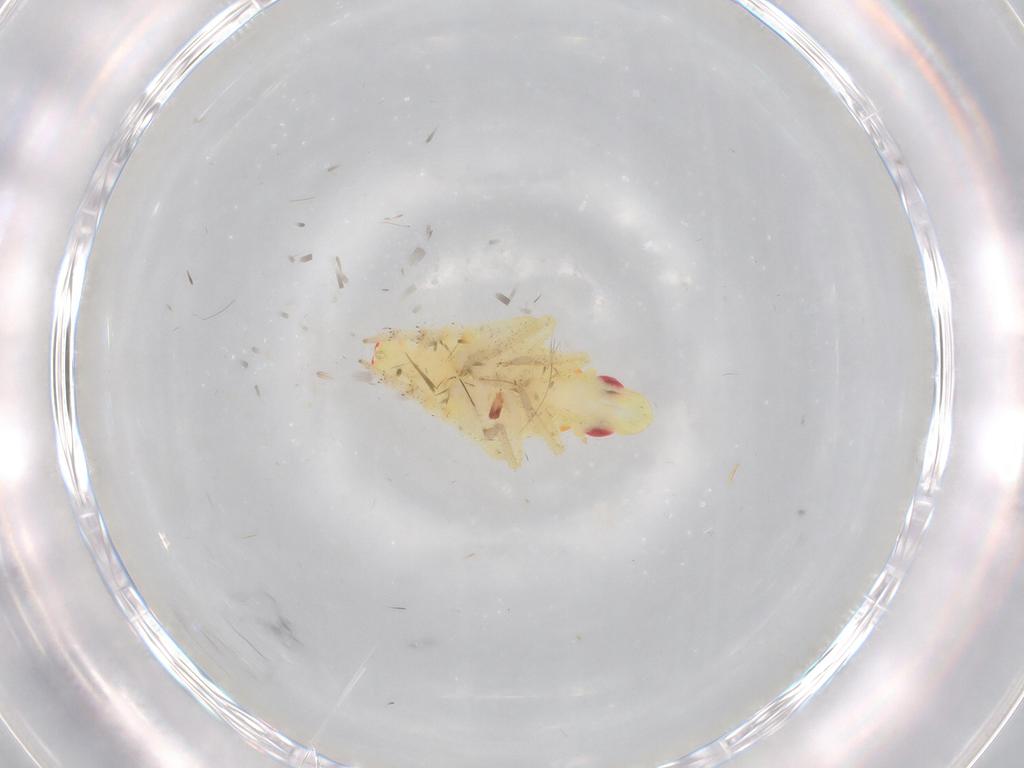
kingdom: Animalia
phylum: Arthropoda
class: Insecta
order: Hemiptera
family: Tropiduchidae
